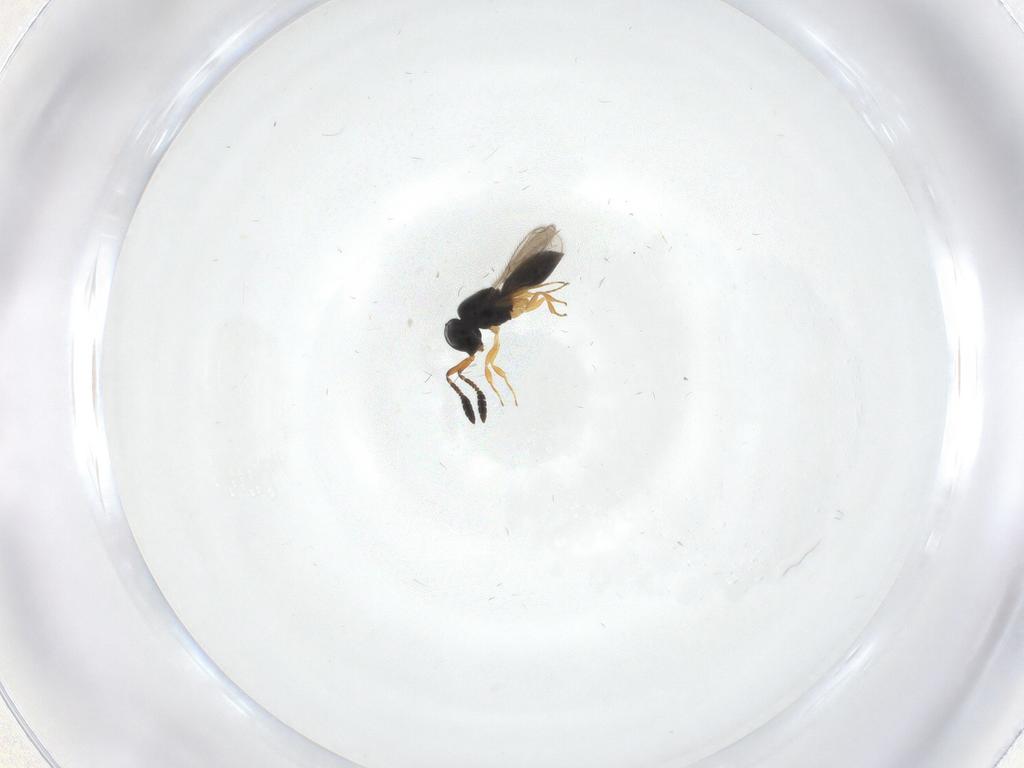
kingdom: Animalia
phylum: Arthropoda
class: Insecta
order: Hymenoptera
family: Scelionidae
